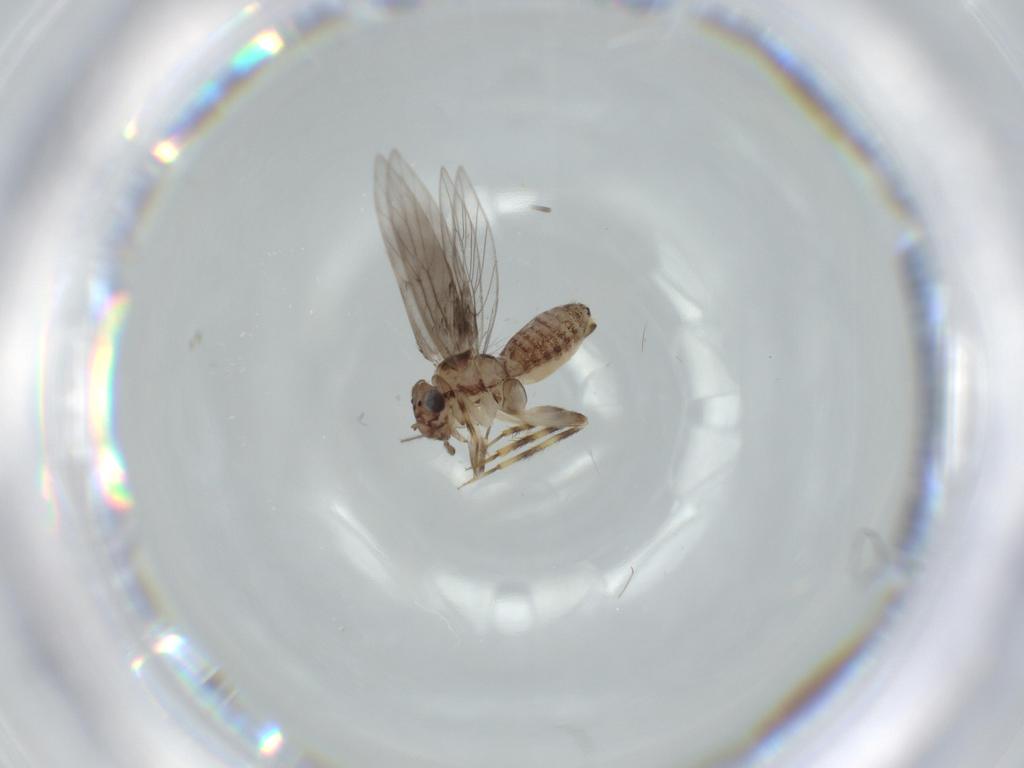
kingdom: Animalia
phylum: Arthropoda
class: Insecta
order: Psocodea
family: Lepidopsocidae
